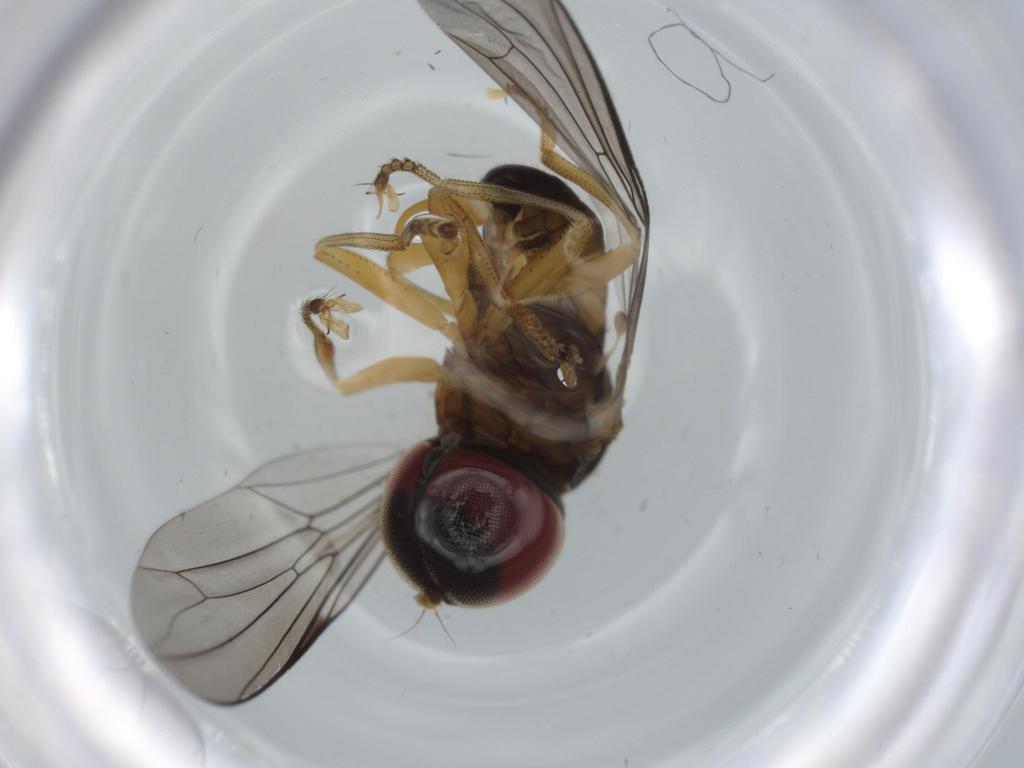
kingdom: Animalia
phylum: Arthropoda
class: Insecta
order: Diptera
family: Pipunculidae
